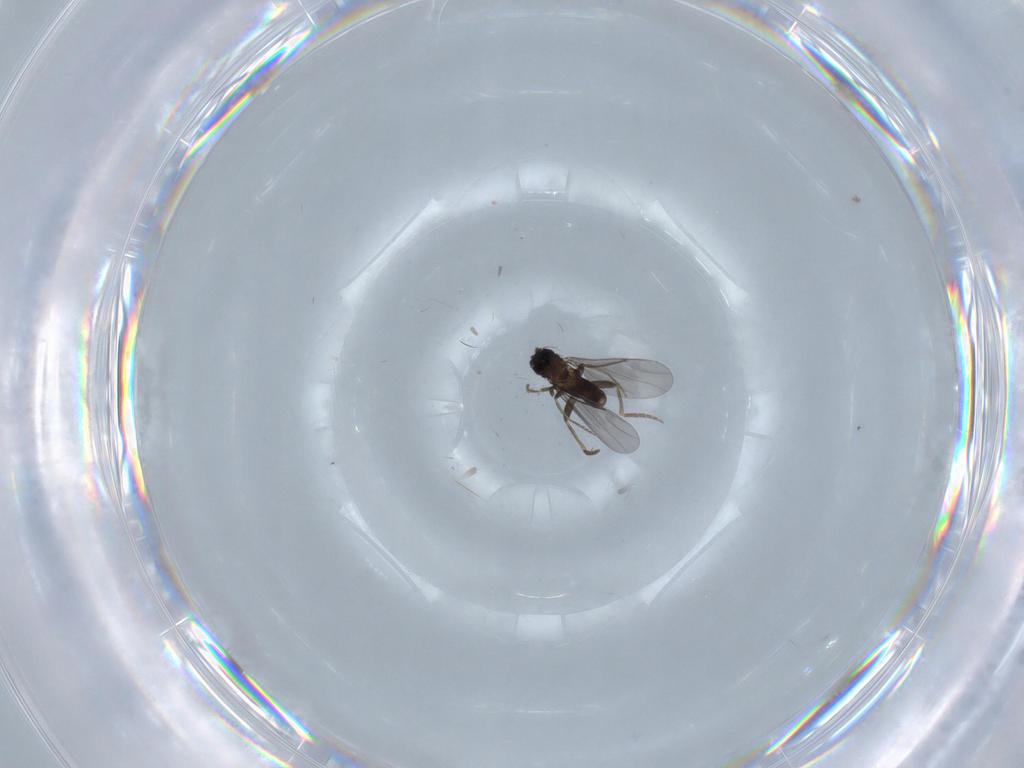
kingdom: Animalia
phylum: Arthropoda
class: Insecta
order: Diptera
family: Sciaridae
